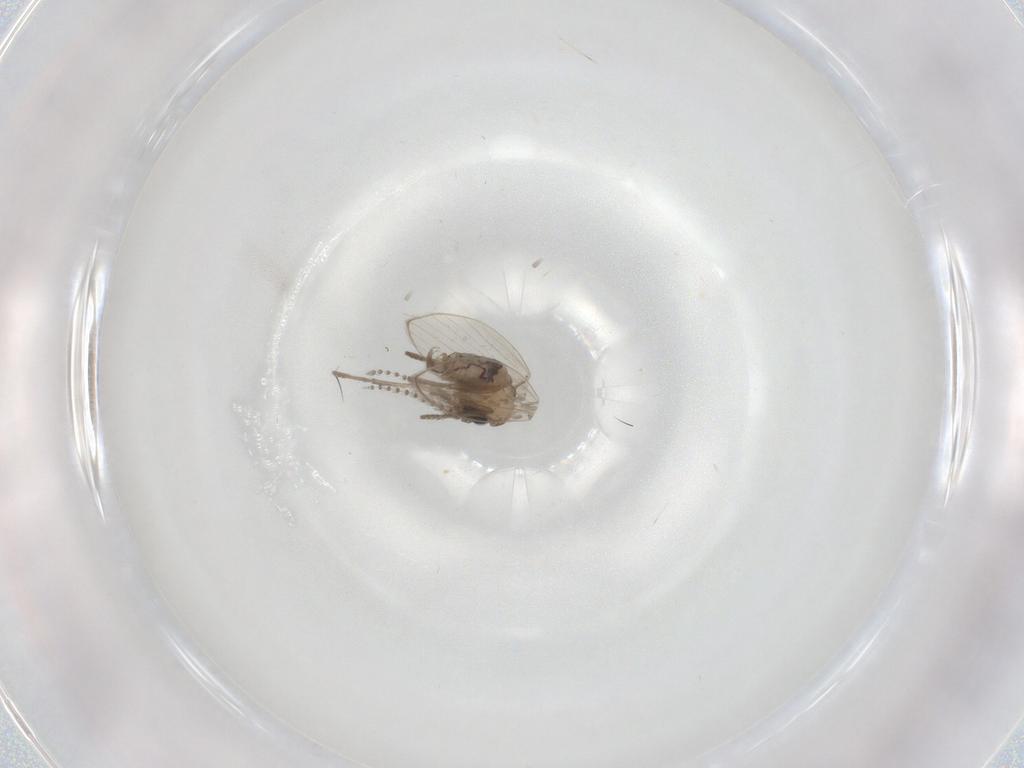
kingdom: Animalia
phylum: Arthropoda
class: Insecta
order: Diptera
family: Psychodidae
